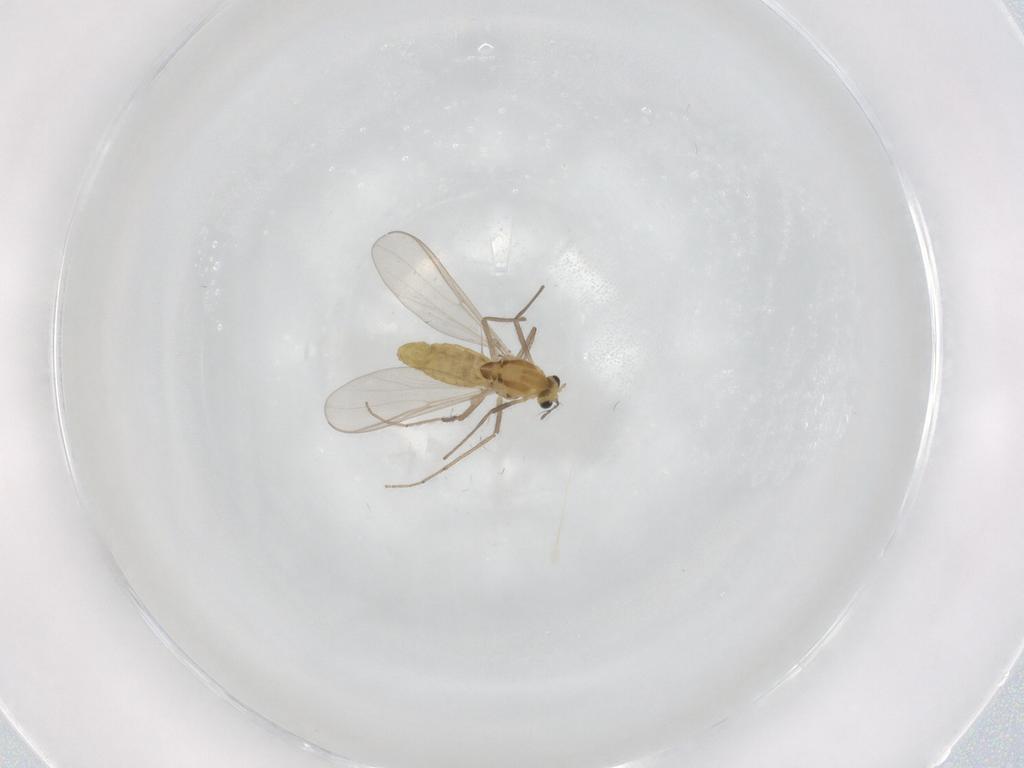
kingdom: Animalia
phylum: Arthropoda
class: Insecta
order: Diptera
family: Chironomidae
